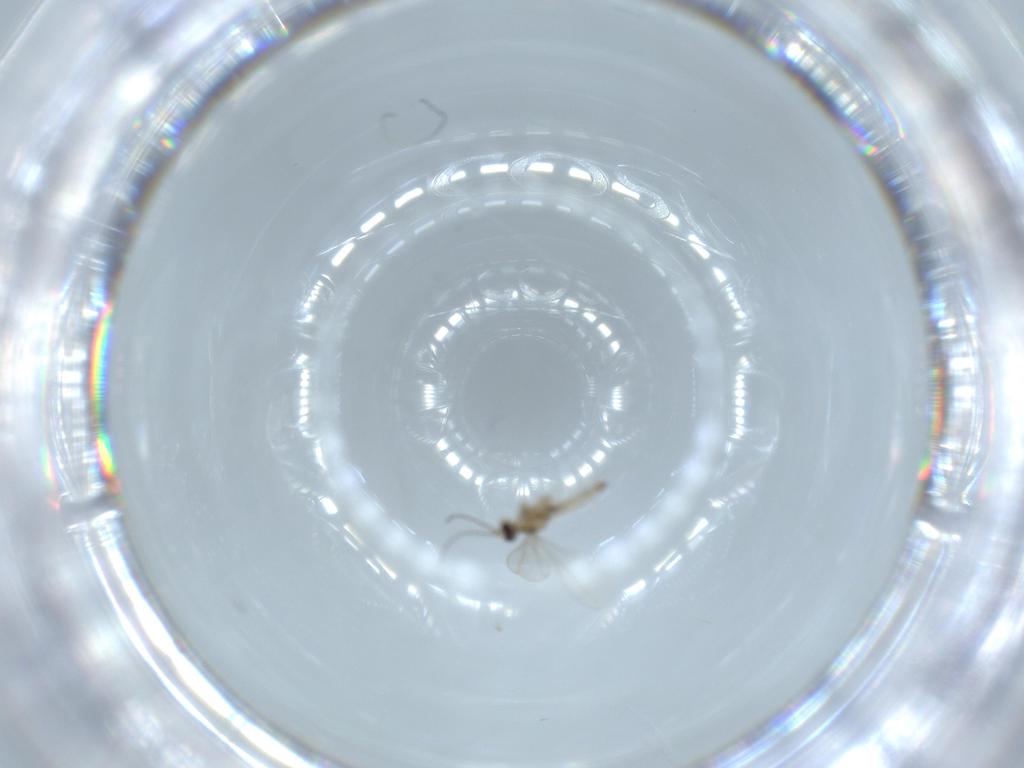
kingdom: Animalia
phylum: Arthropoda
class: Insecta
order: Diptera
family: Cecidomyiidae
